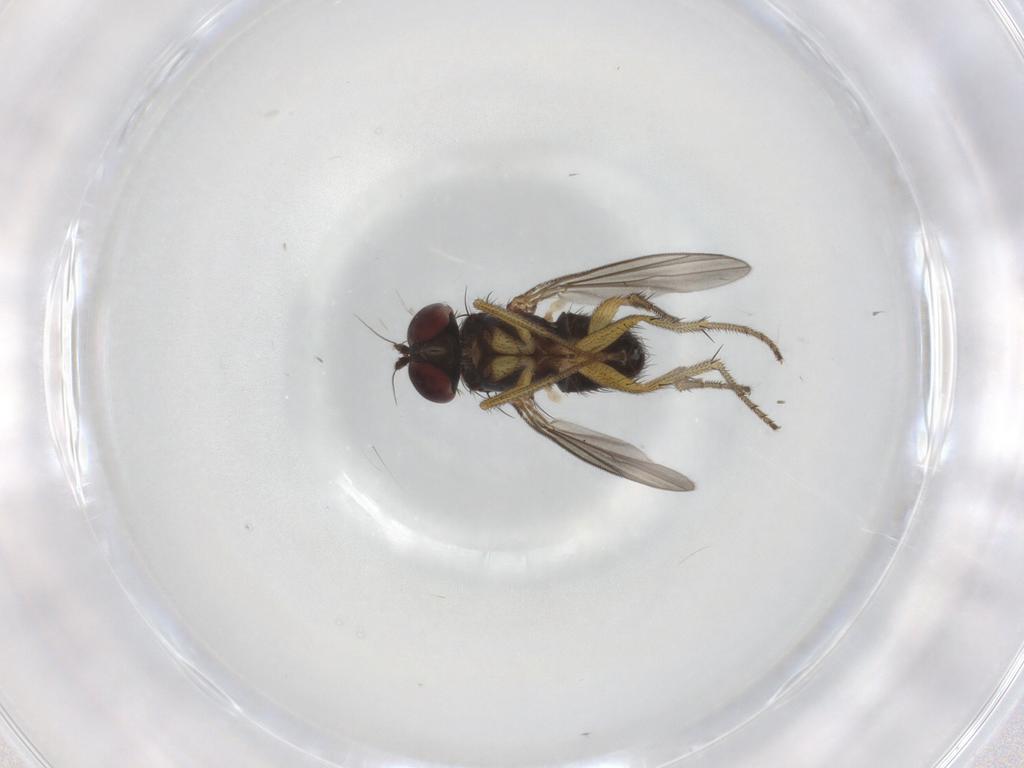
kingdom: Animalia
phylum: Arthropoda
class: Insecta
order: Diptera
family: Dolichopodidae
